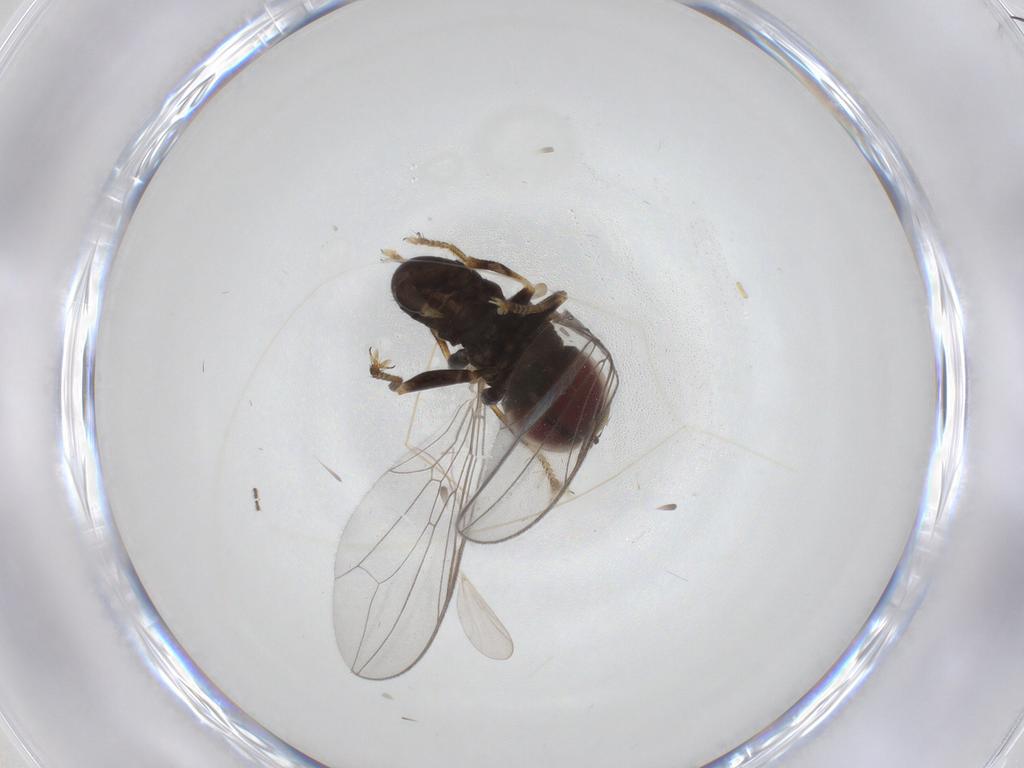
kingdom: Animalia
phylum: Arthropoda
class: Insecta
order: Diptera
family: Pipunculidae
